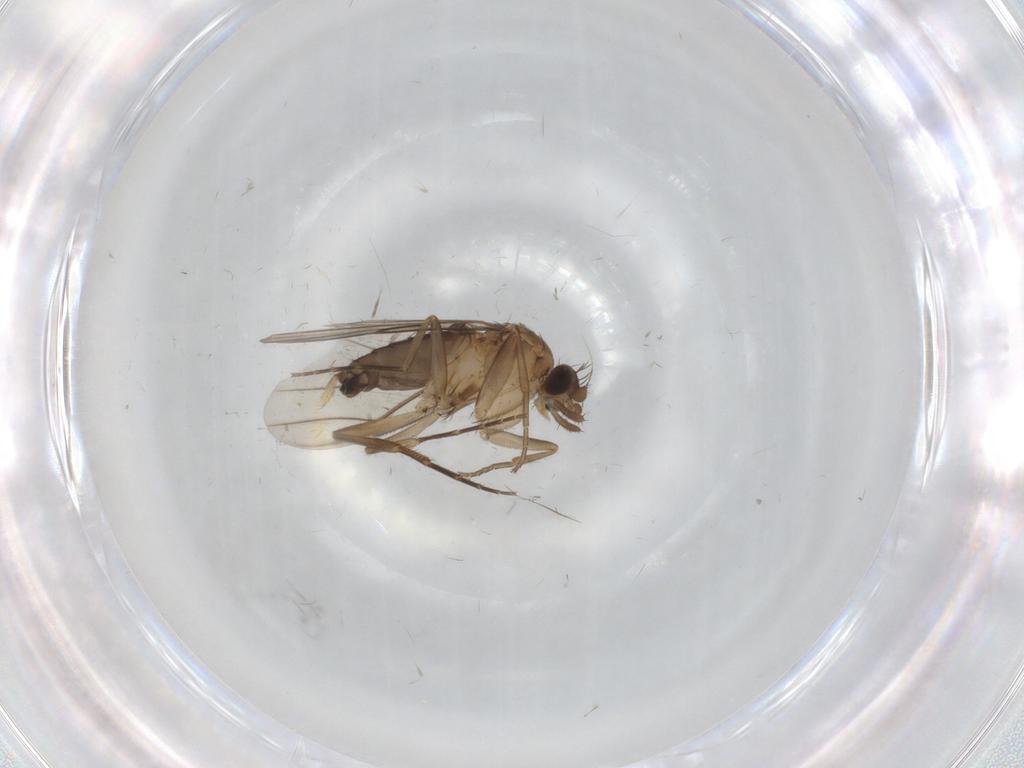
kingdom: Animalia
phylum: Arthropoda
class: Insecta
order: Diptera
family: Phoridae
